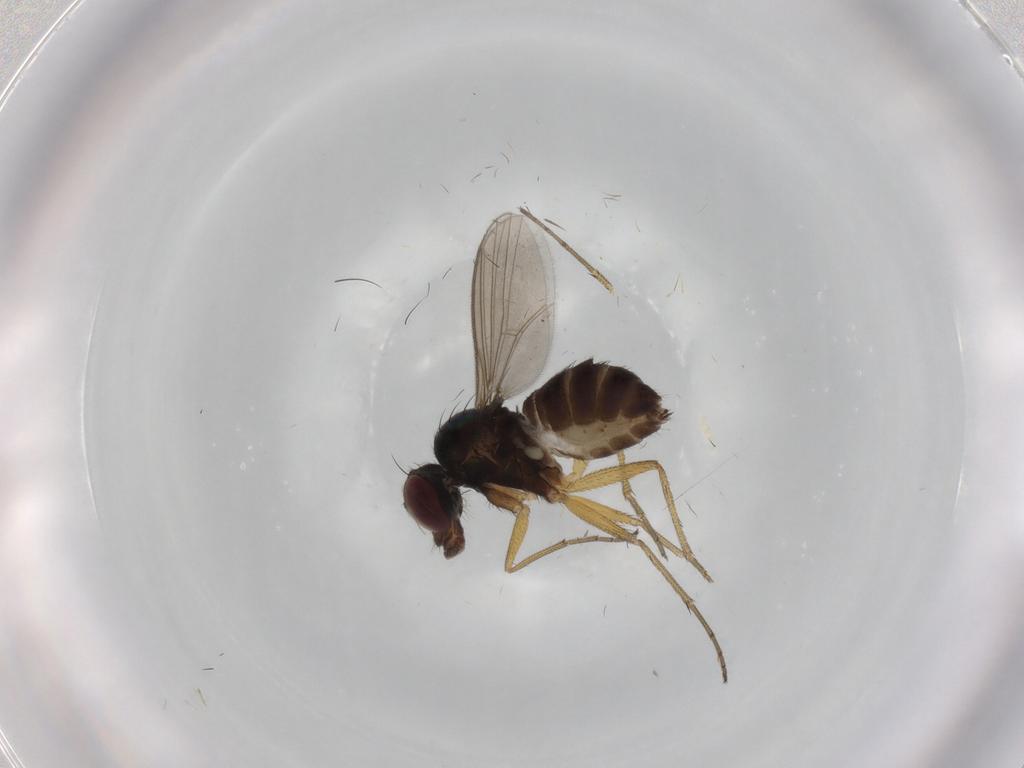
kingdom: Animalia
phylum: Arthropoda
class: Insecta
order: Diptera
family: Dolichopodidae
